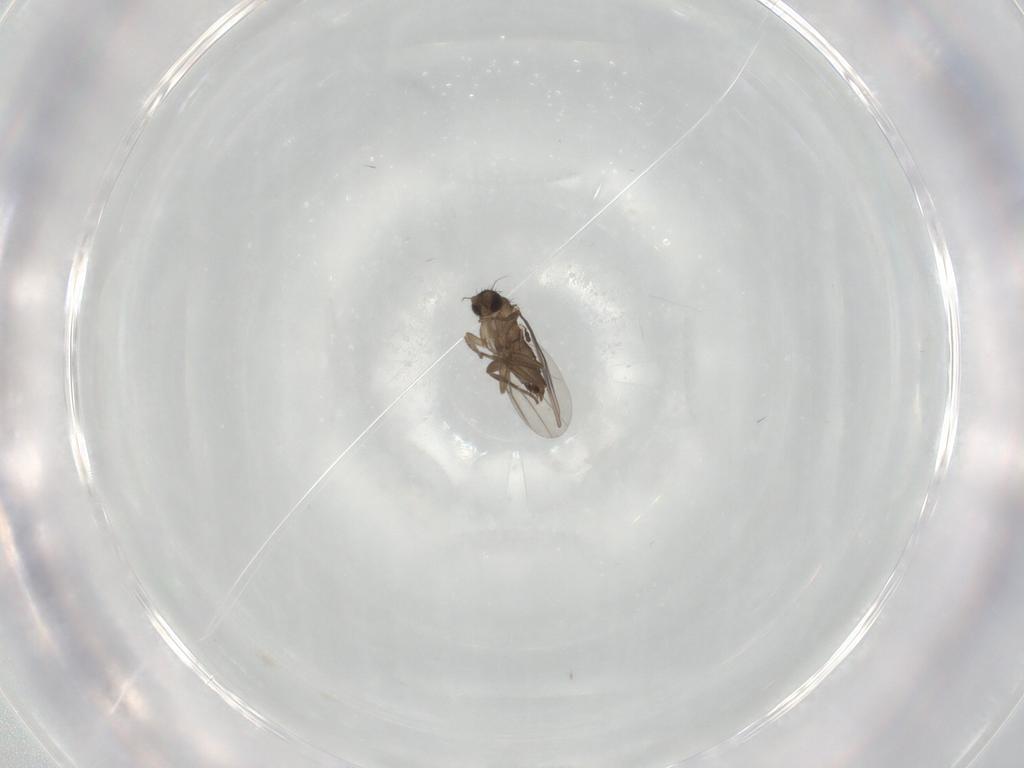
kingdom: Animalia
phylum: Arthropoda
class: Insecta
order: Diptera
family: Phoridae
